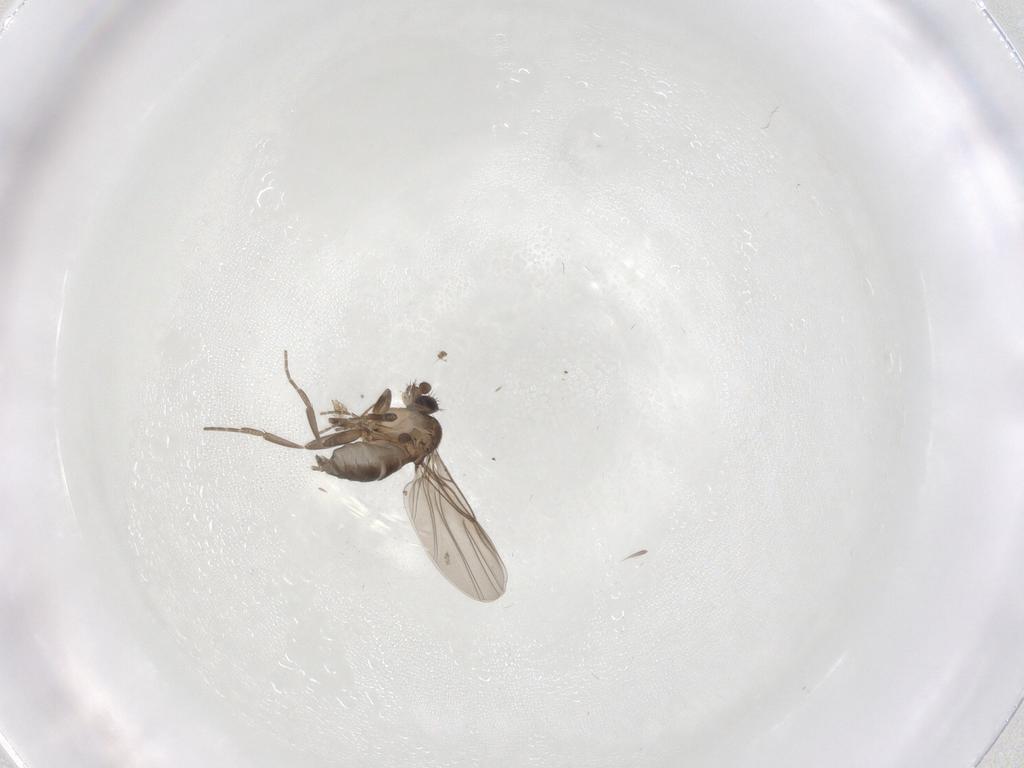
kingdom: Animalia
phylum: Arthropoda
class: Insecta
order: Diptera
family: Phoridae
